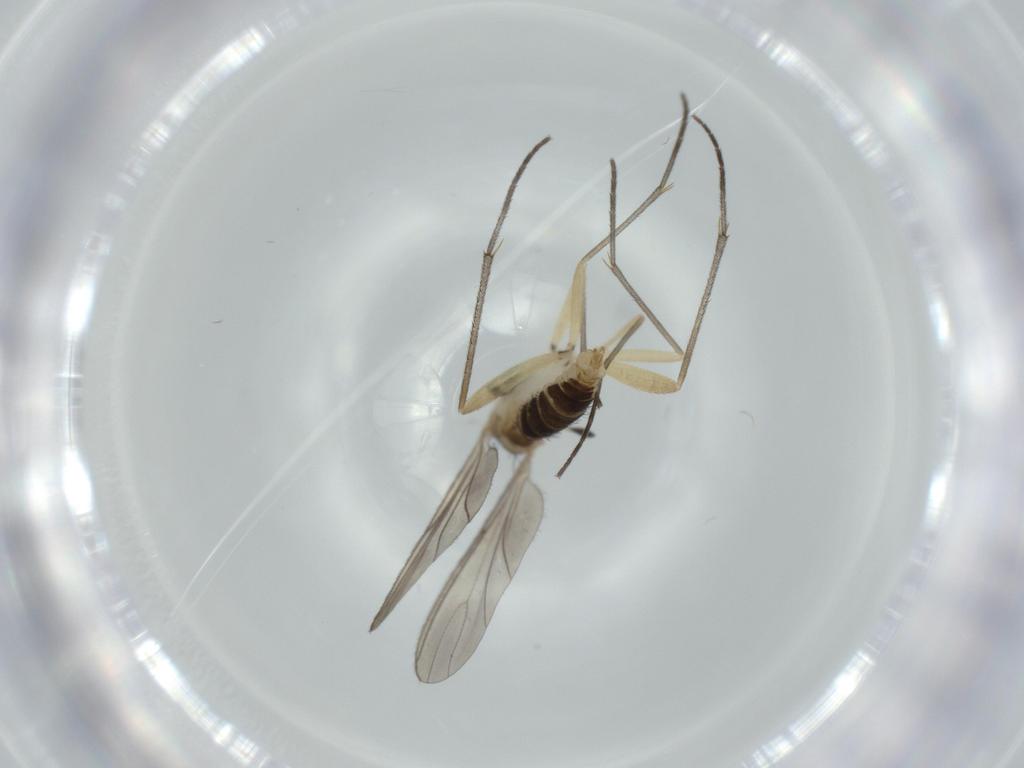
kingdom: Animalia
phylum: Arthropoda
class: Insecta
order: Diptera
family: Sciaridae
